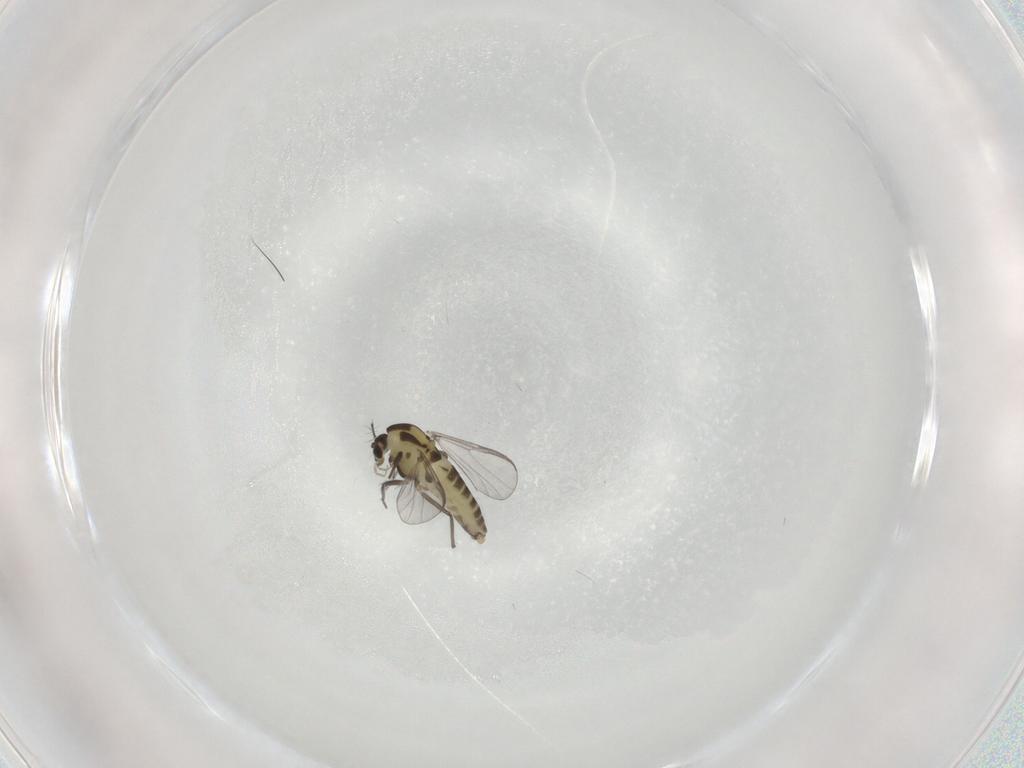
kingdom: Animalia
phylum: Arthropoda
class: Insecta
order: Diptera
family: Chironomidae
